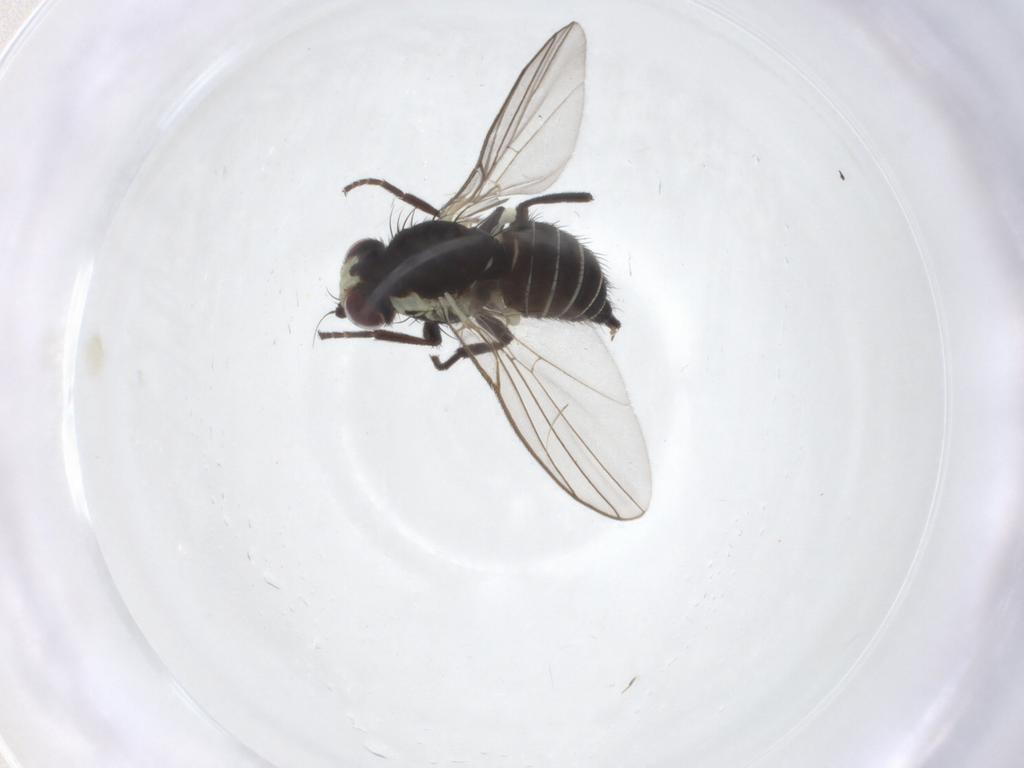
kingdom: Animalia
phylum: Arthropoda
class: Insecta
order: Diptera
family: Agromyzidae
